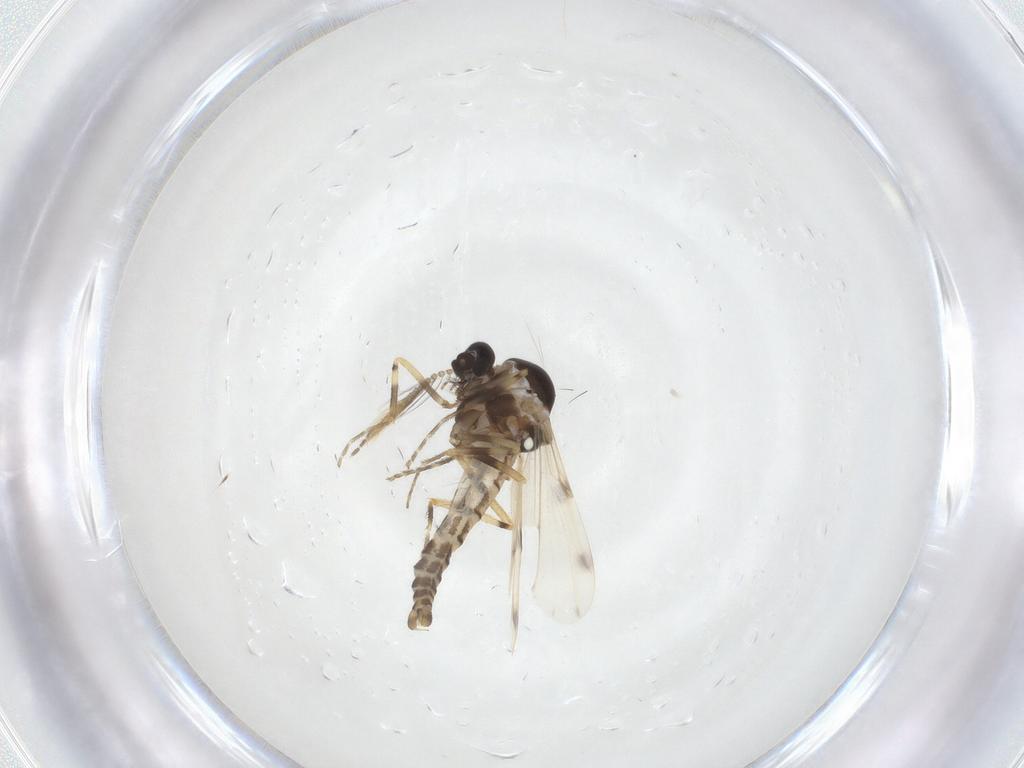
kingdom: Animalia
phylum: Arthropoda
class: Insecta
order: Diptera
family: Ceratopogonidae
